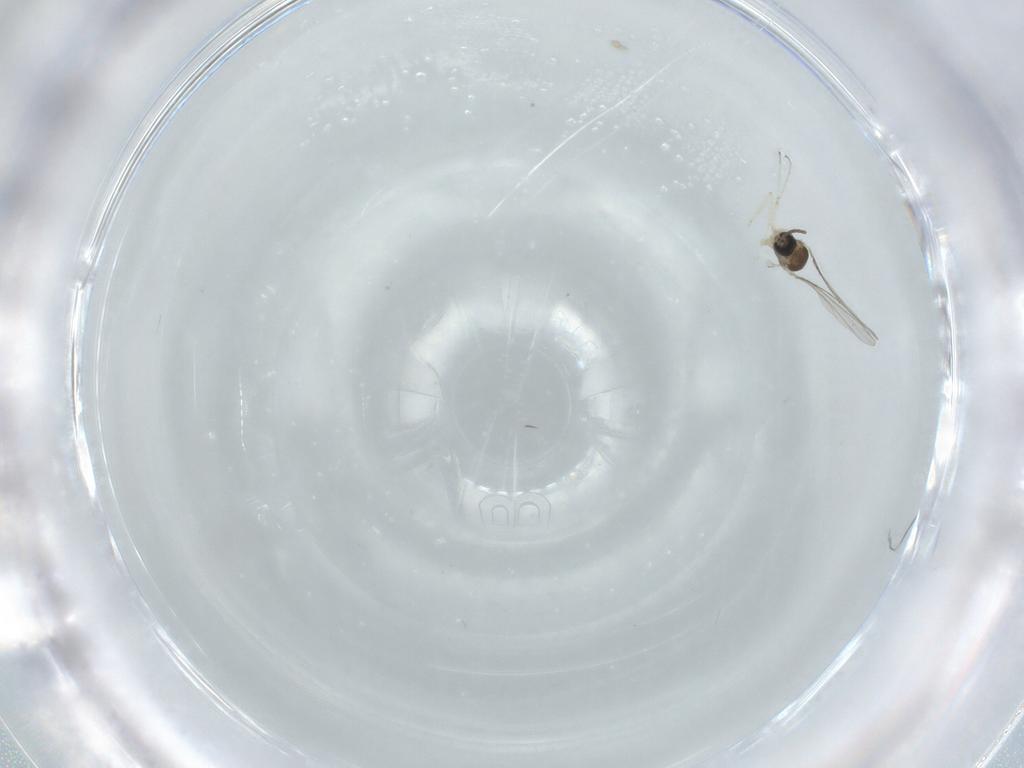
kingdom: Animalia
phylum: Arthropoda
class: Insecta
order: Diptera
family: Cecidomyiidae
